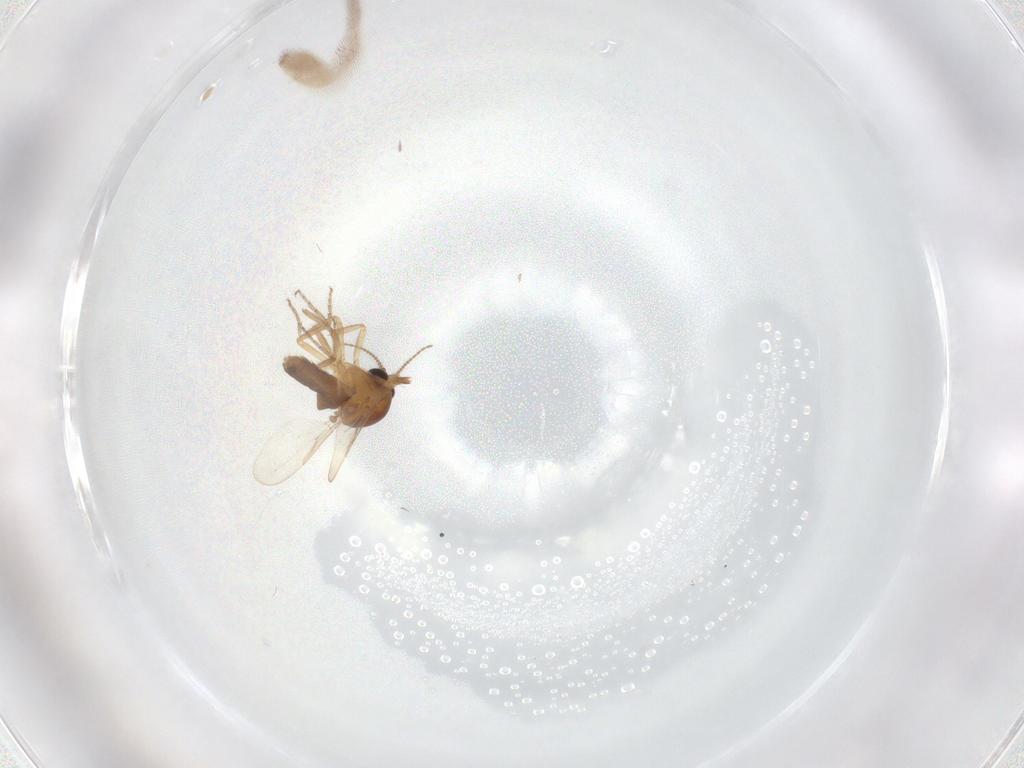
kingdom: Animalia
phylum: Arthropoda
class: Insecta
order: Diptera
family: Ceratopogonidae
